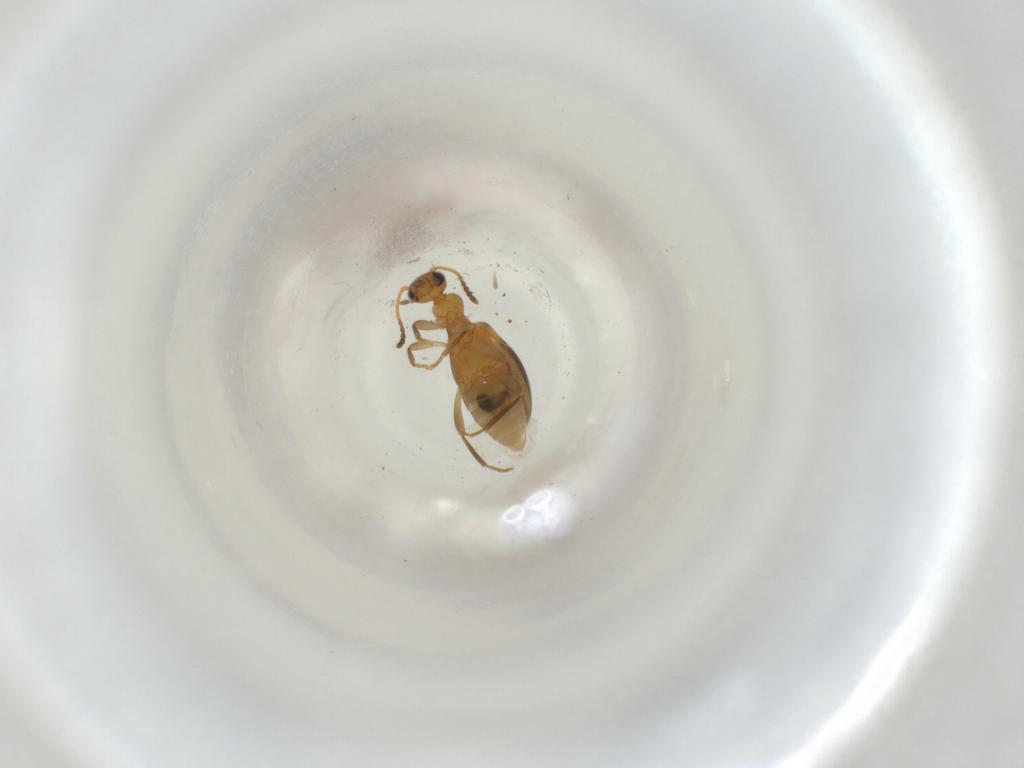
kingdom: Animalia
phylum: Arthropoda
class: Insecta
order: Coleoptera
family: Anthicidae
